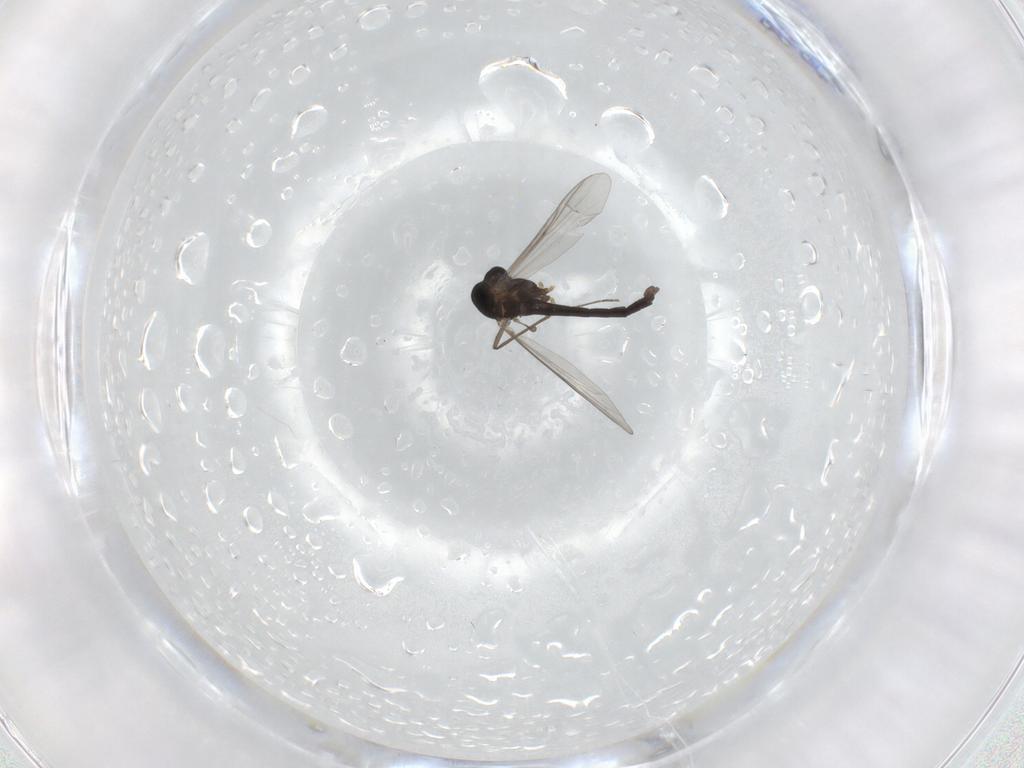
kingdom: Animalia
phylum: Arthropoda
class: Insecta
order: Diptera
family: Chironomidae
